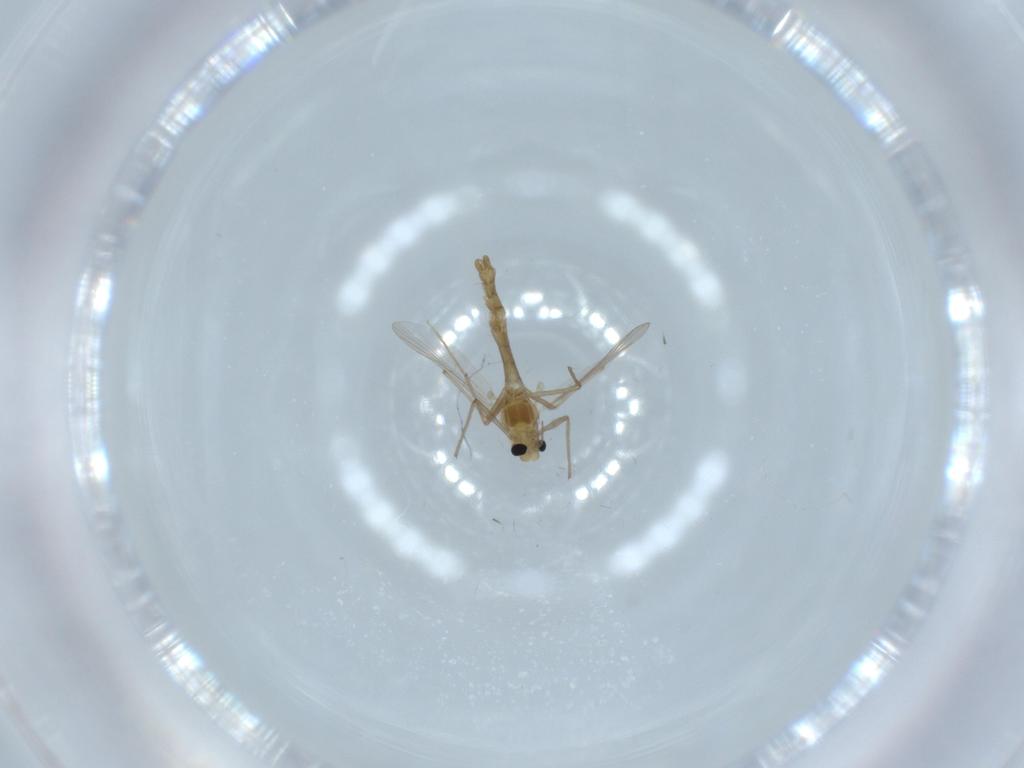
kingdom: Animalia
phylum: Arthropoda
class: Insecta
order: Diptera
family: Chironomidae
